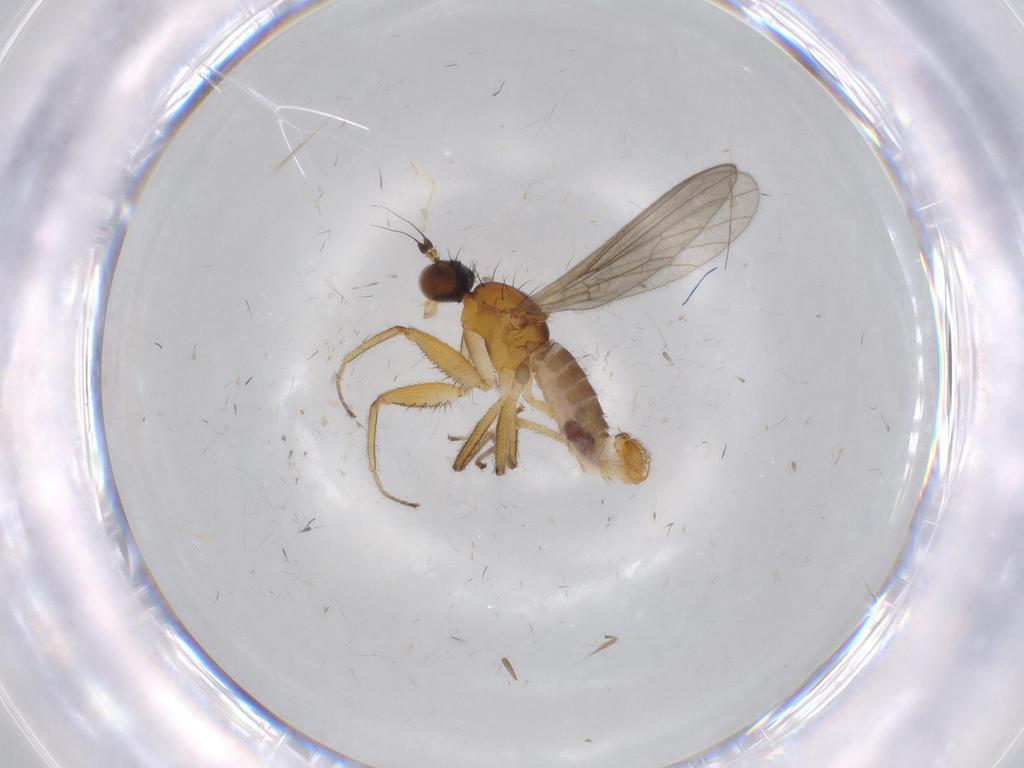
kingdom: Animalia
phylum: Arthropoda
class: Insecta
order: Diptera
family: Empididae
